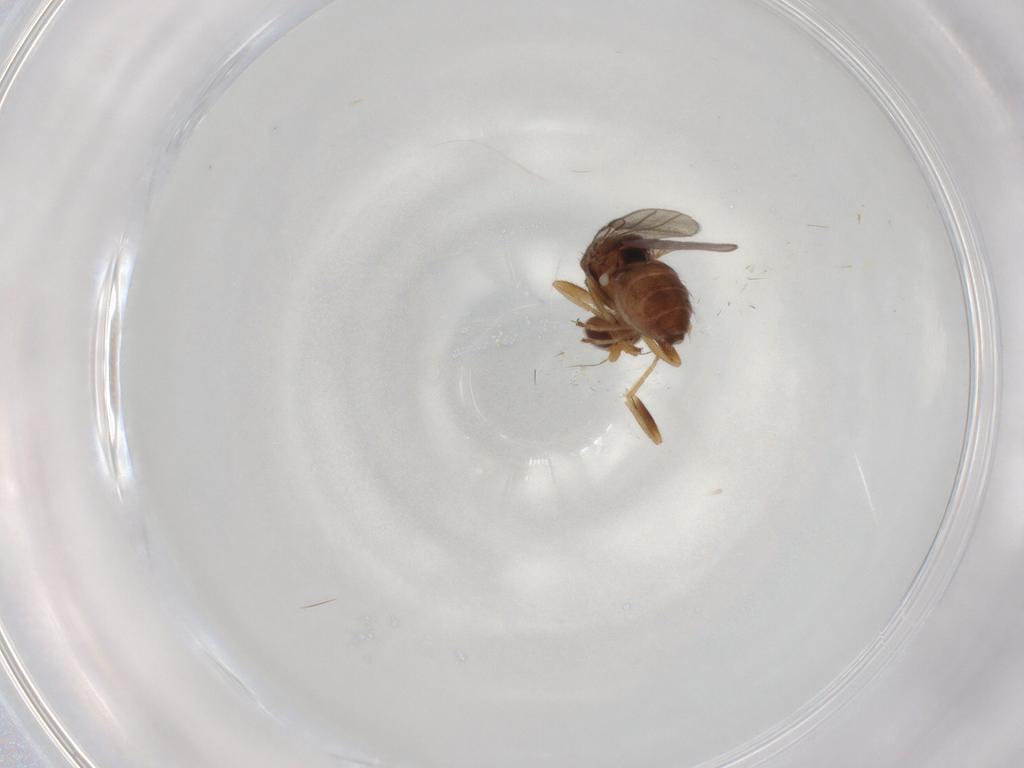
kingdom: Animalia
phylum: Arthropoda
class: Insecta
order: Diptera
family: Chloropidae
